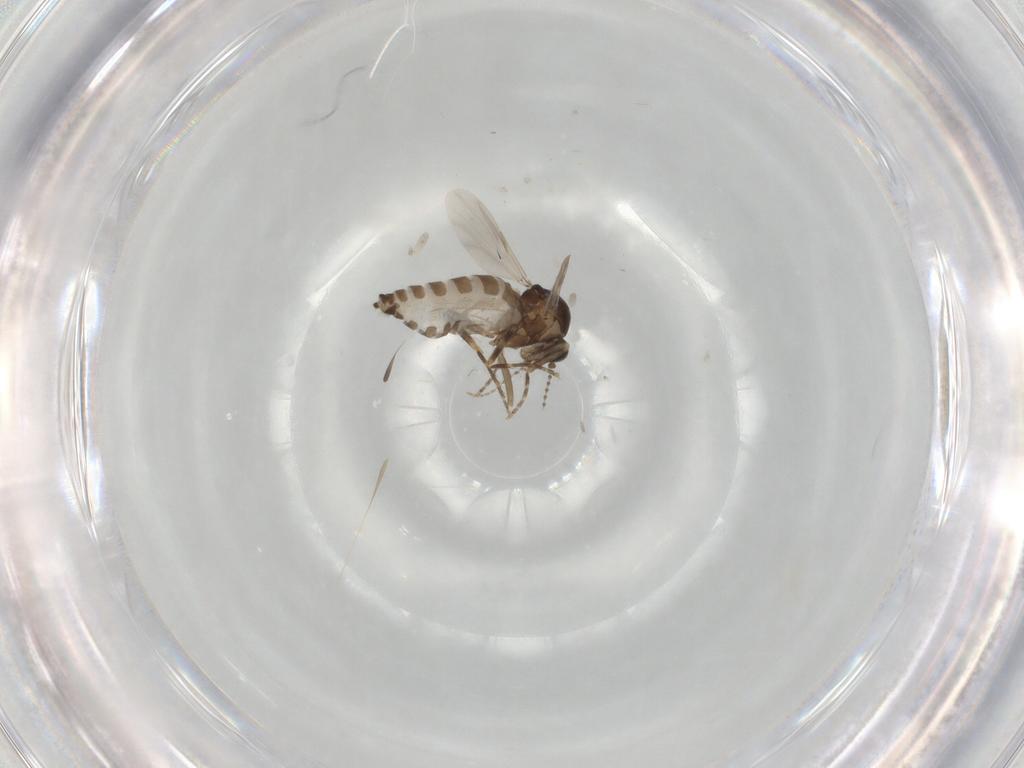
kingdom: Animalia
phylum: Arthropoda
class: Insecta
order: Diptera
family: Ceratopogonidae
